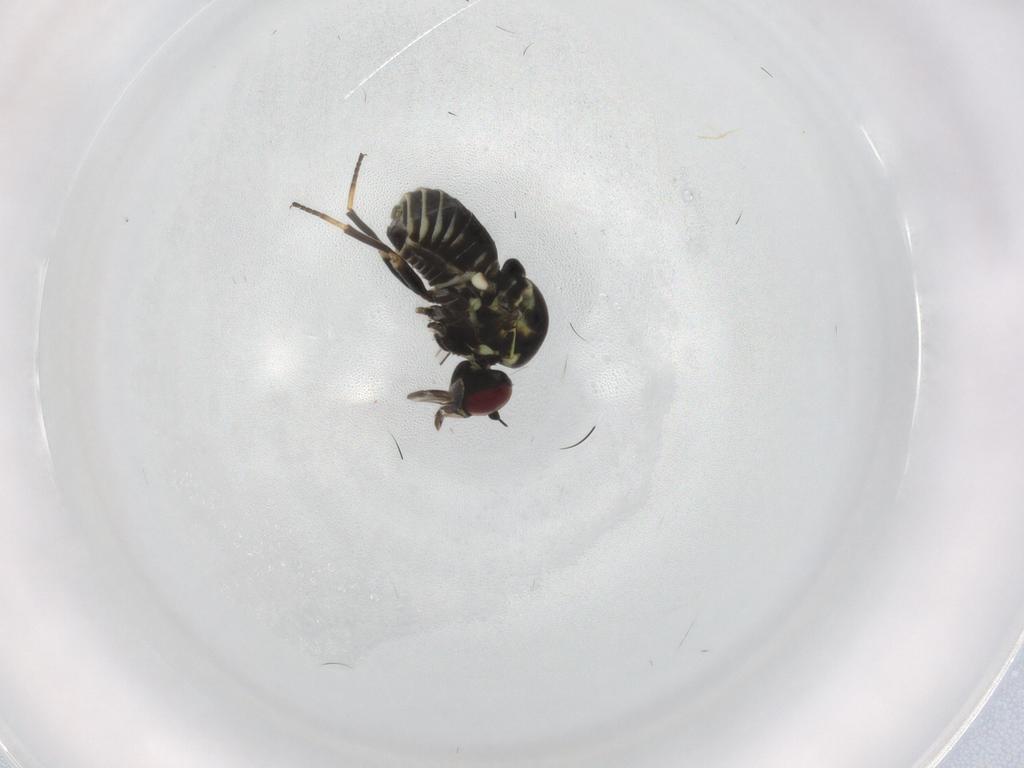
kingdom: Animalia
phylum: Arthropoda
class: Insecta
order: Diptera
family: Mythicomyiidae
